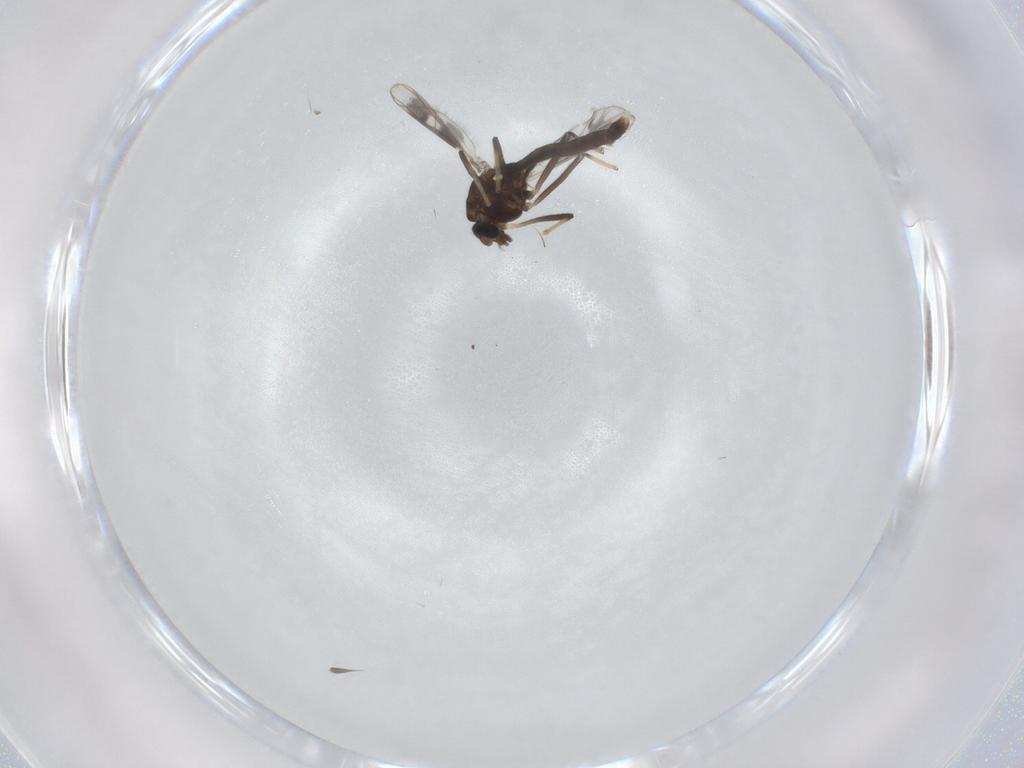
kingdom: Animalia
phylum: Arthropoda
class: Insecta
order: Diptera
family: Chironomidae
